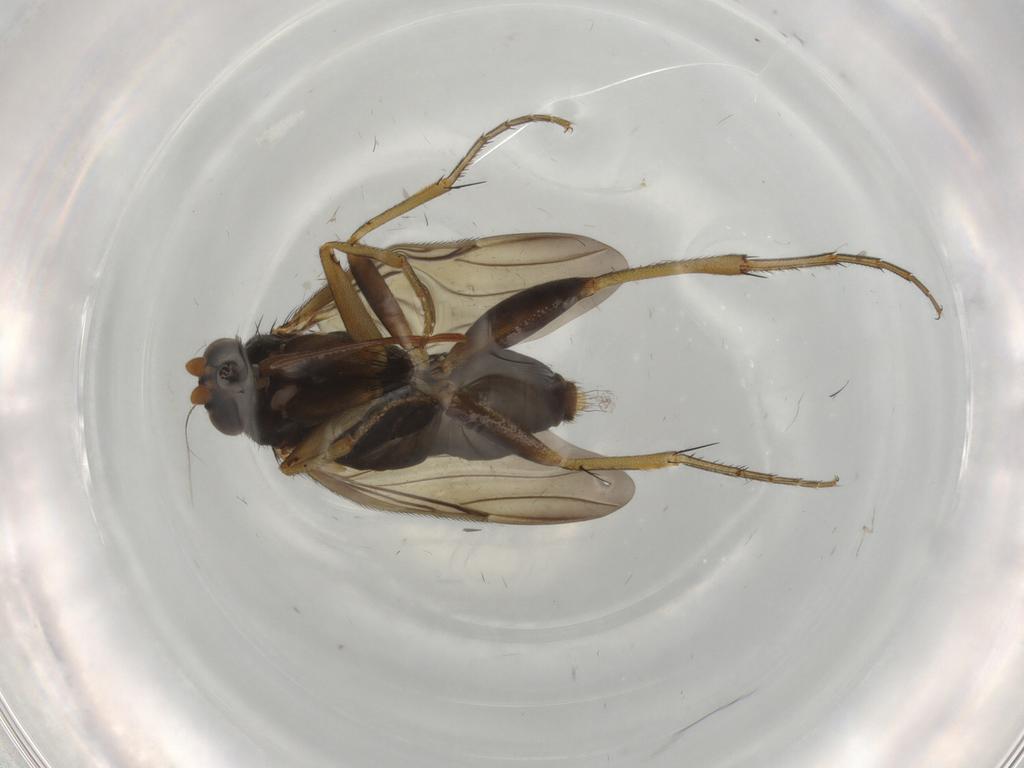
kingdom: Animalia
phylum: Arthropoda
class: Insecta
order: Diptera
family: Phoridae
